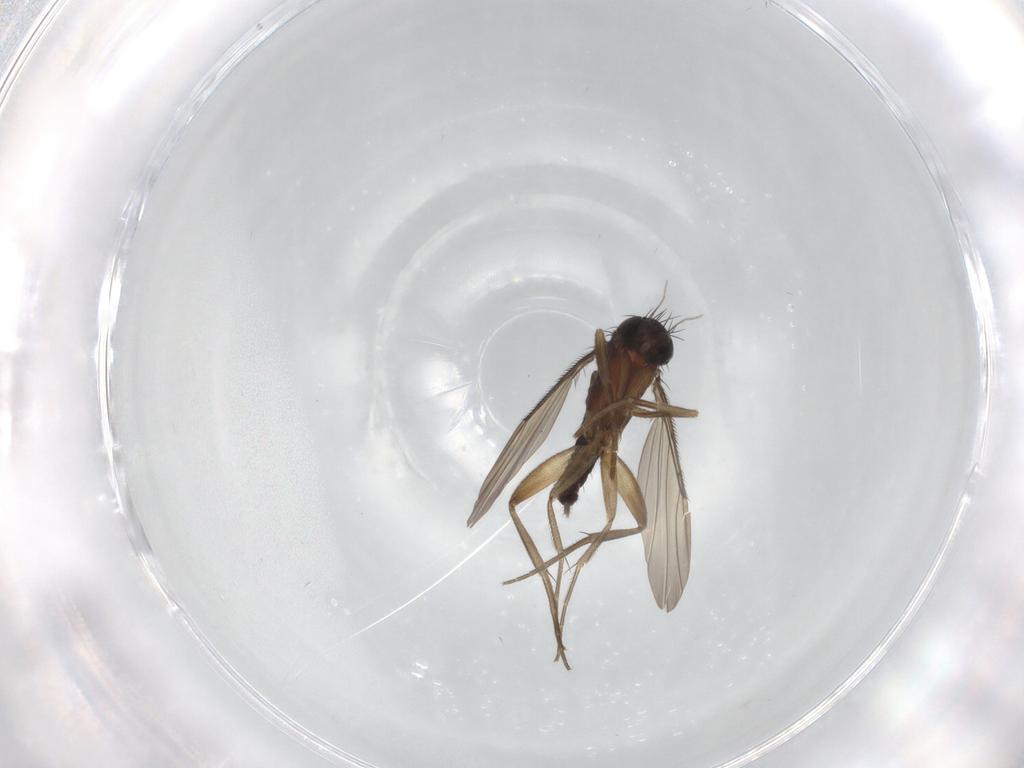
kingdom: Animalia
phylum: Arthropoda
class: Insecta
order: Diptera
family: Phoridae
